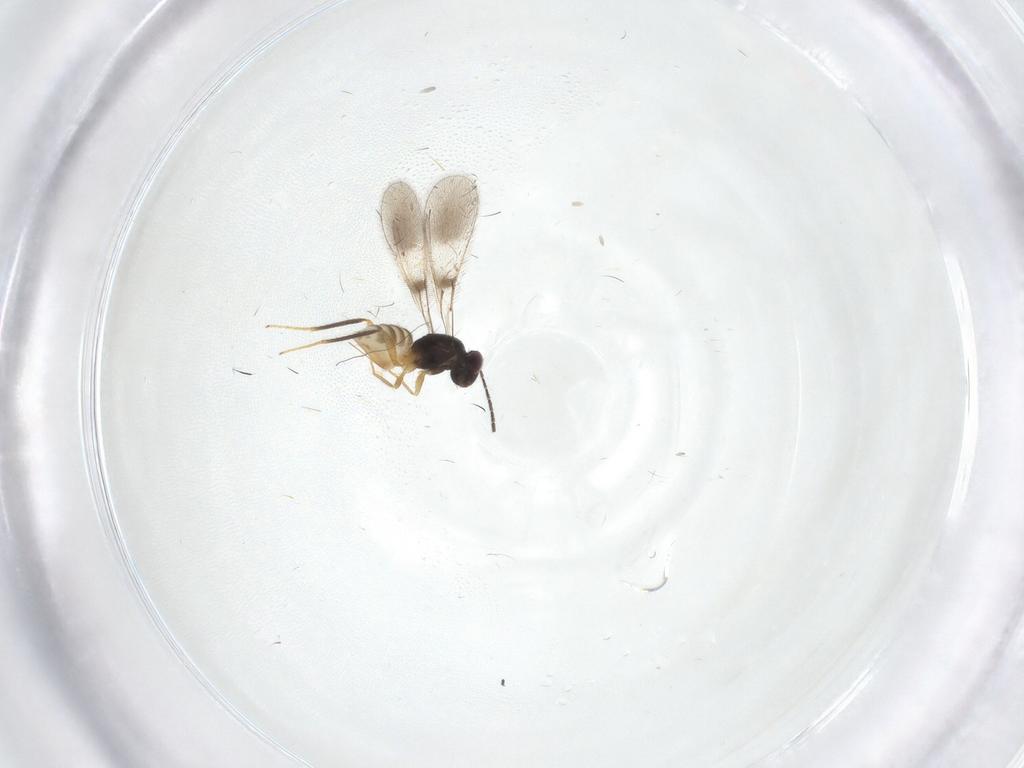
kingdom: Animalia
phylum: Arthropoda
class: Insecta
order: Hymenoptera
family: Mymaridae
